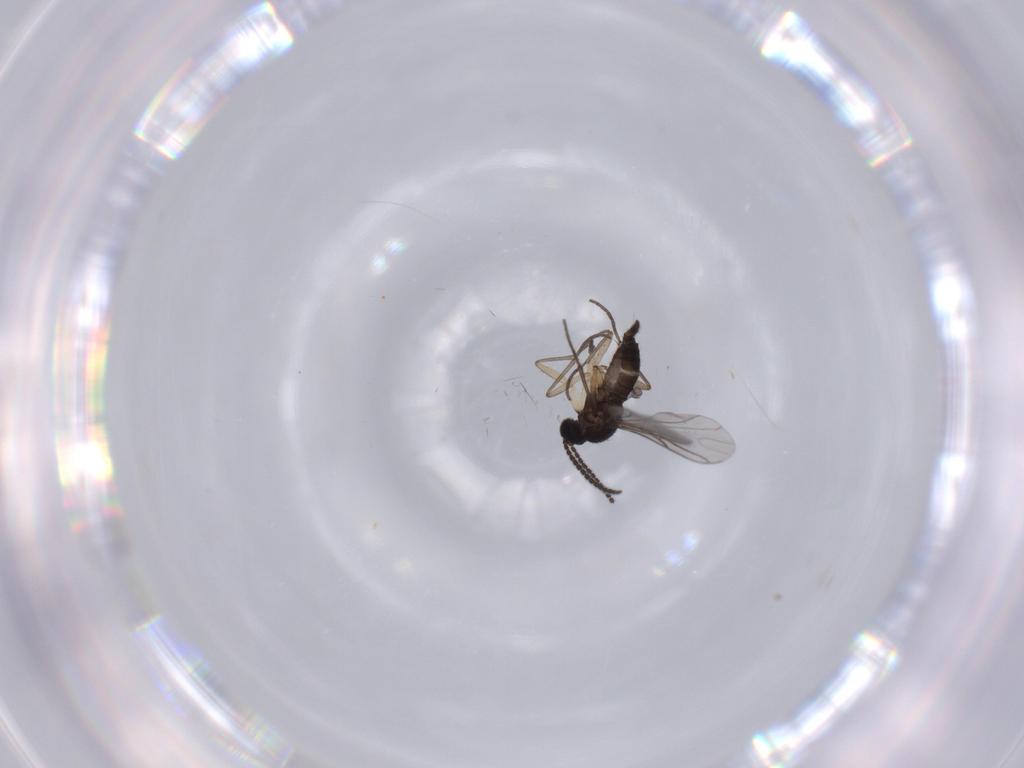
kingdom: Animalia
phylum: Arthropoda
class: Insecta
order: Diptera
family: Sciaridae
